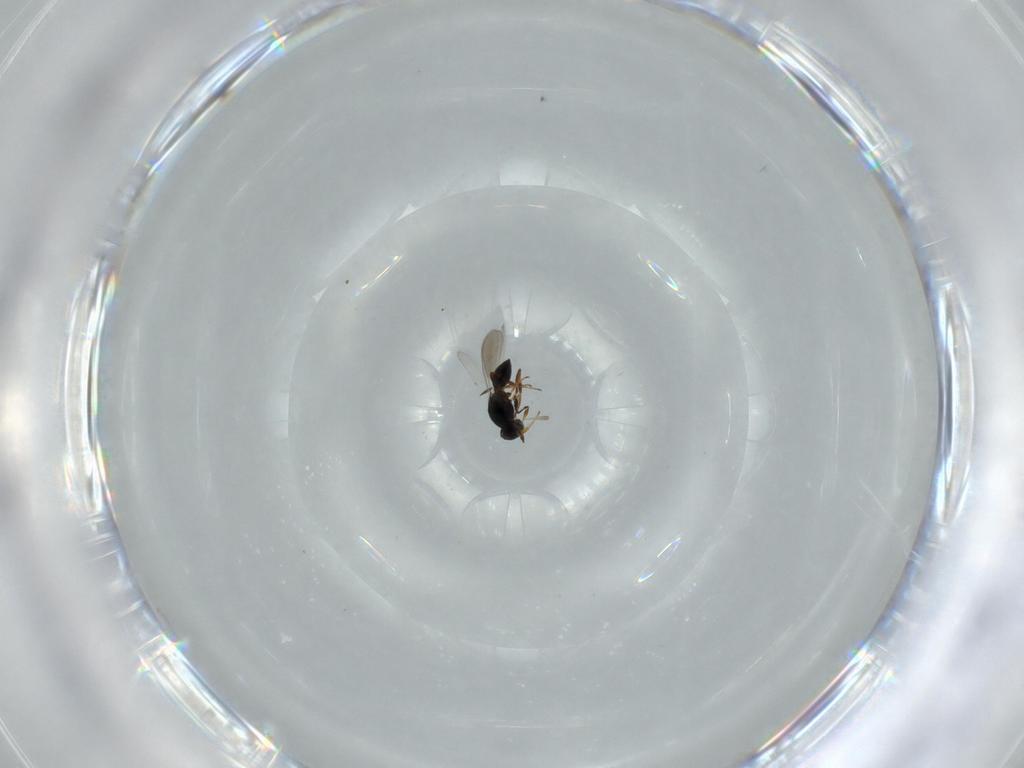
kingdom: Animalia
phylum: Arthropoda
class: Insecta
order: Hymenoptera
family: Platygastridae
